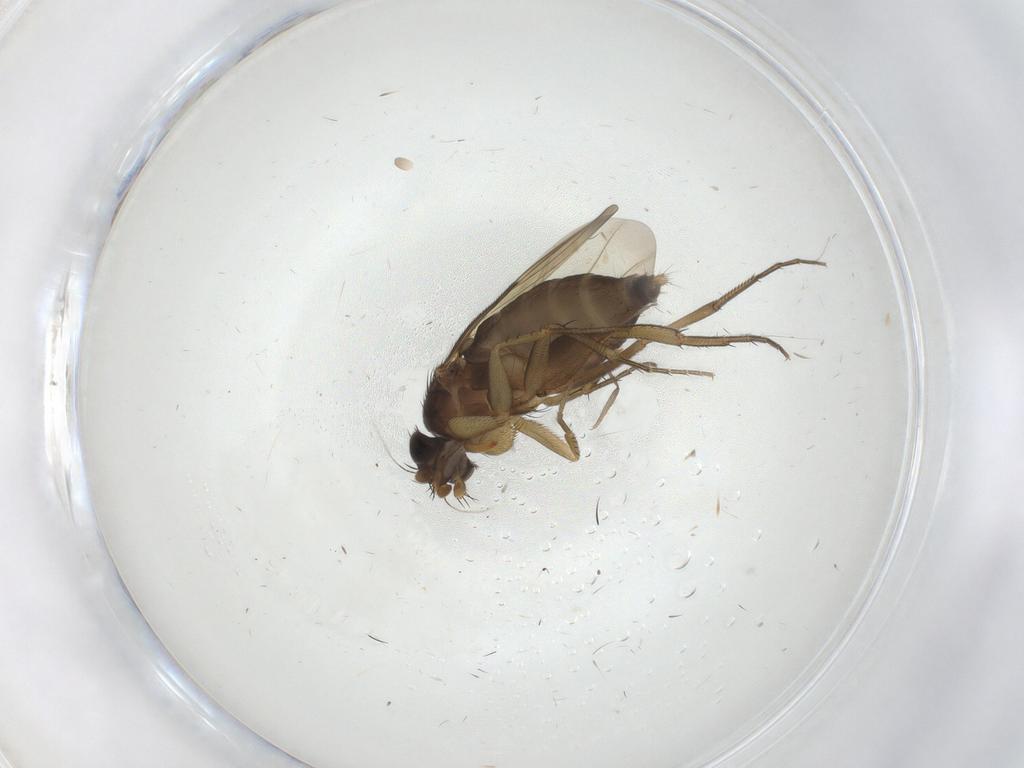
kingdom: Animalia
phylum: Arthropoda
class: Insecta
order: Diptera
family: Phoridae
